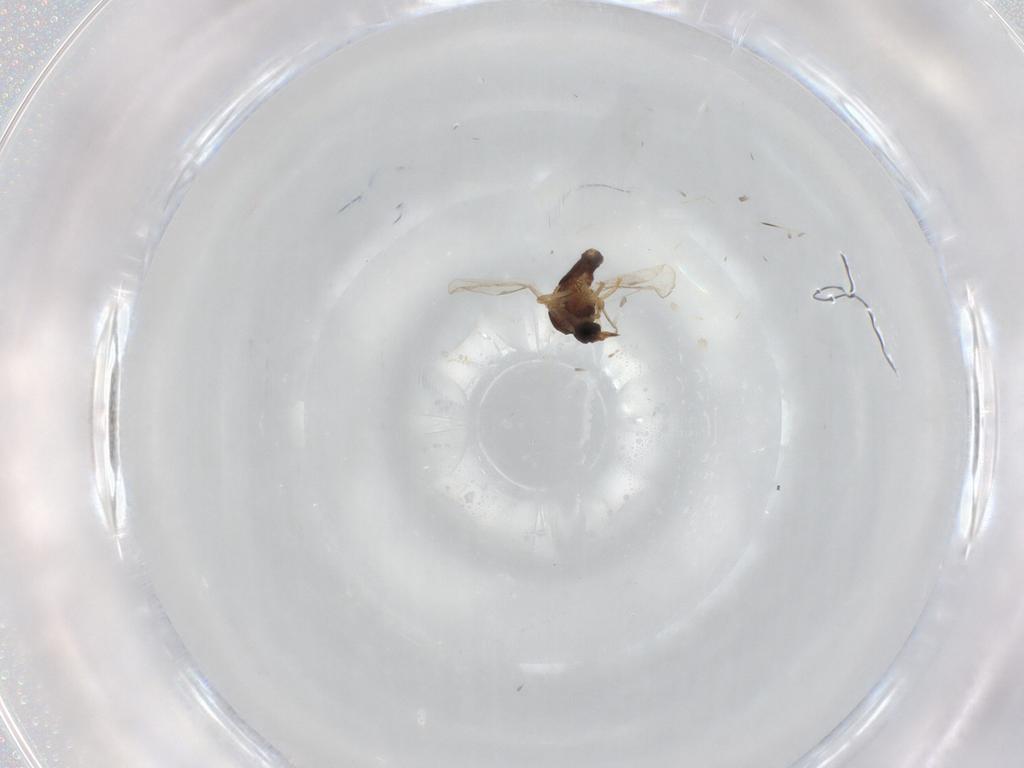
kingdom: Animalia
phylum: Arthropoda
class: Insecta
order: Diptera
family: Ceratopogonidae
